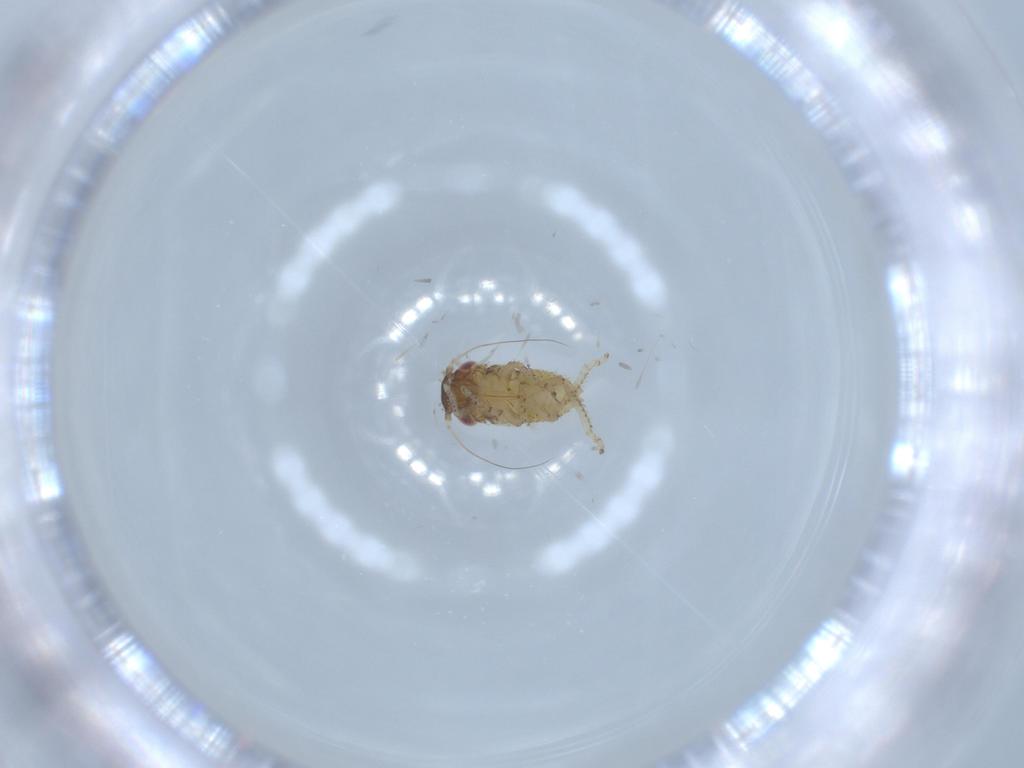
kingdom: Animalia
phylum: Arthropoda
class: Insecta
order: Hemiptera
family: Cicadellidae
